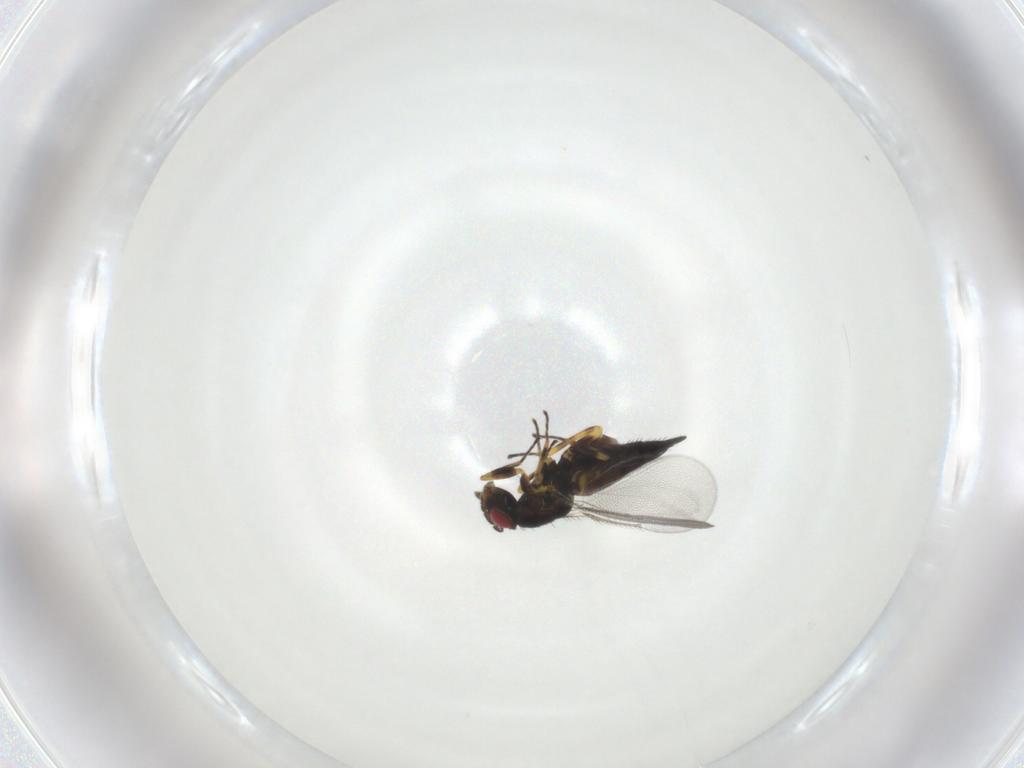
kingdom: Animalia
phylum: Arthropoda
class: Insecta
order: Hymenoptera
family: Eulophidae
